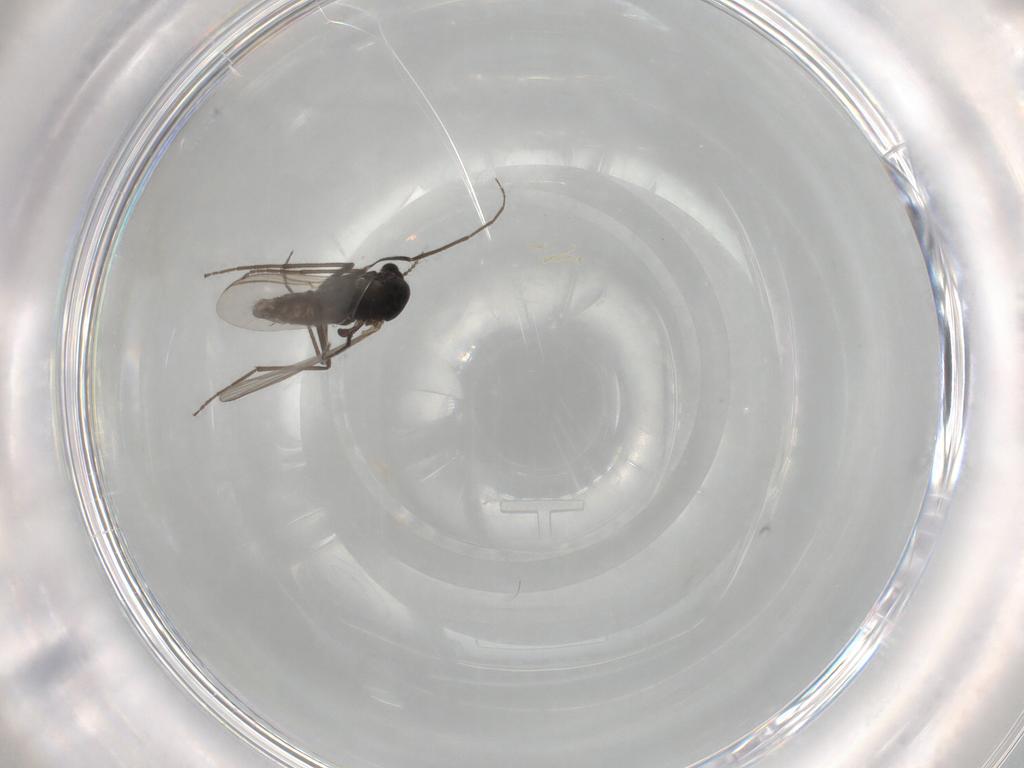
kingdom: Animalia
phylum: Arthropoda
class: Insecta
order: Diptera
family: Chironomidae
